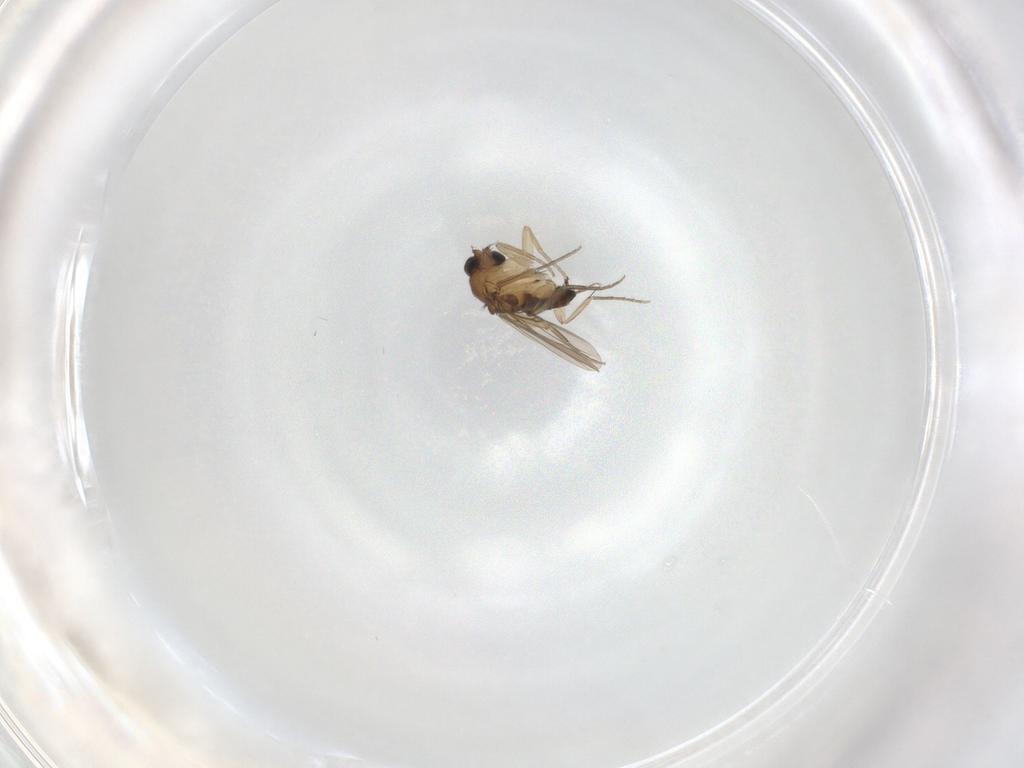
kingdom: Animalia
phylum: Arthropoda
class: Insecta
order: Diptera
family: Phoridae
